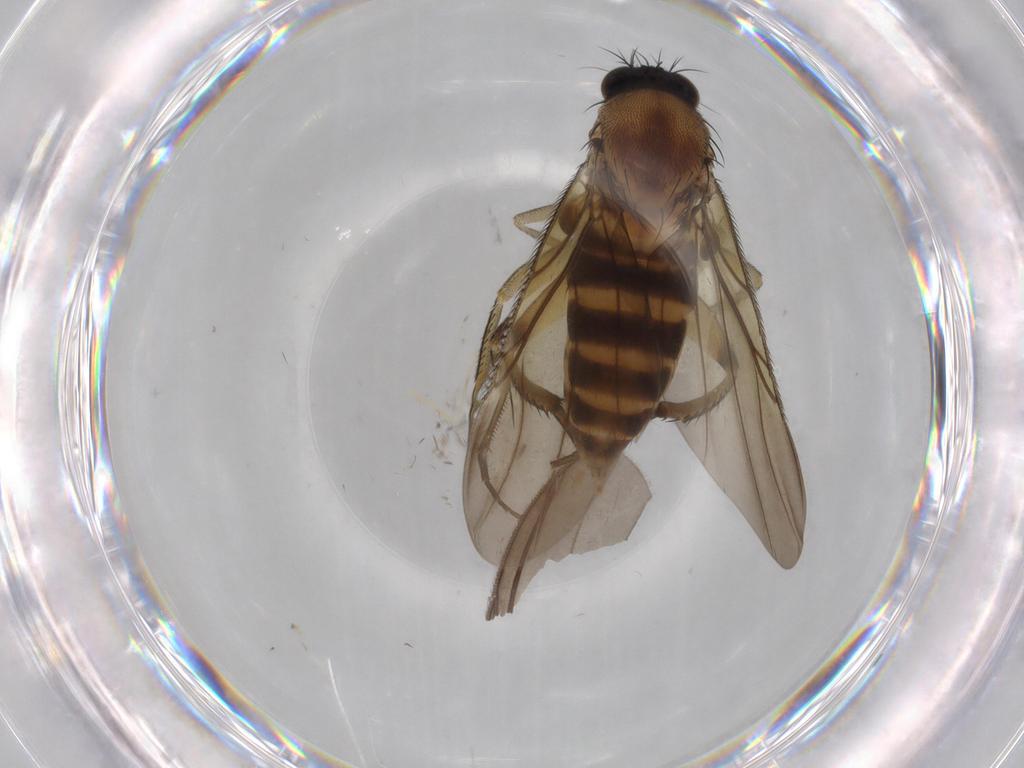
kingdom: Animalia
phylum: Arthropoda
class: Insecta
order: Diptera
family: Phoridae
